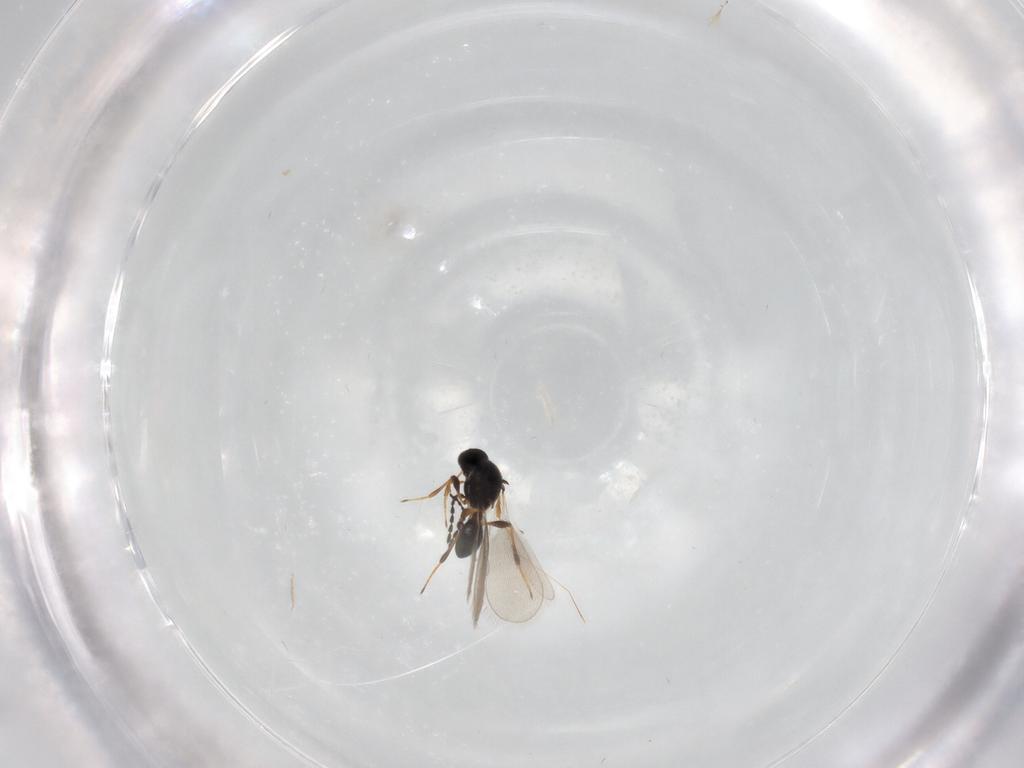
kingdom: Animalia
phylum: Arthropoda
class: Insecta
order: Hymenoptera
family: Platygastridae
